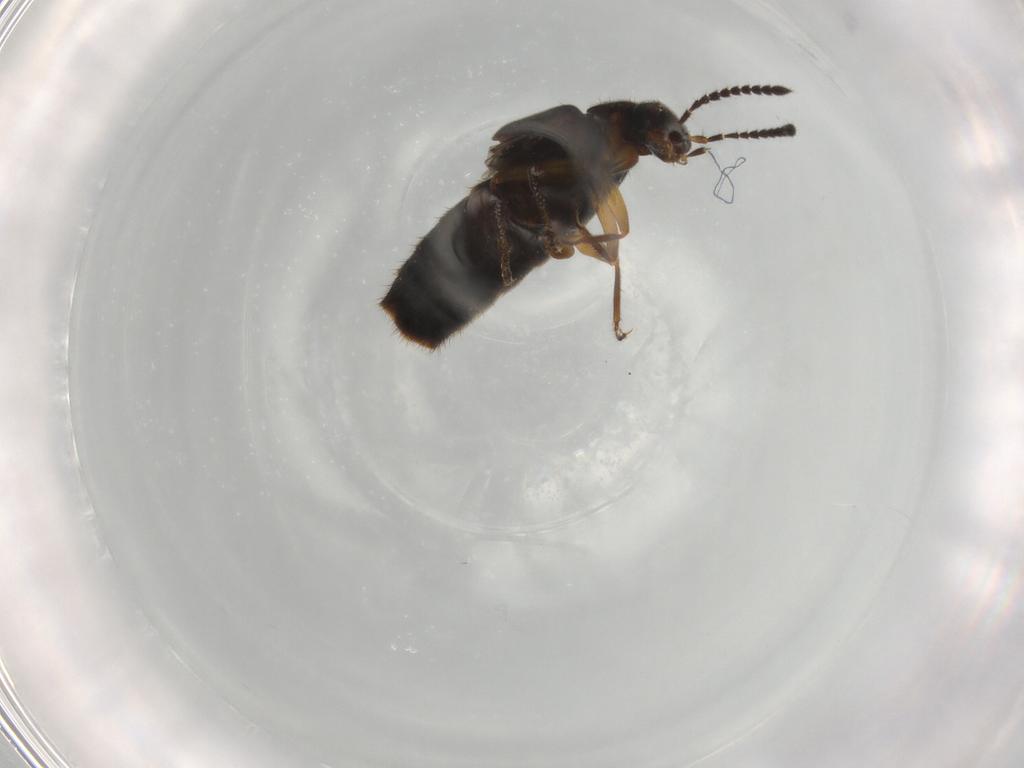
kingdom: Animalia
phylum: Arthropoda
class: Insecta
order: Coleoptera
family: Staphylinidae
